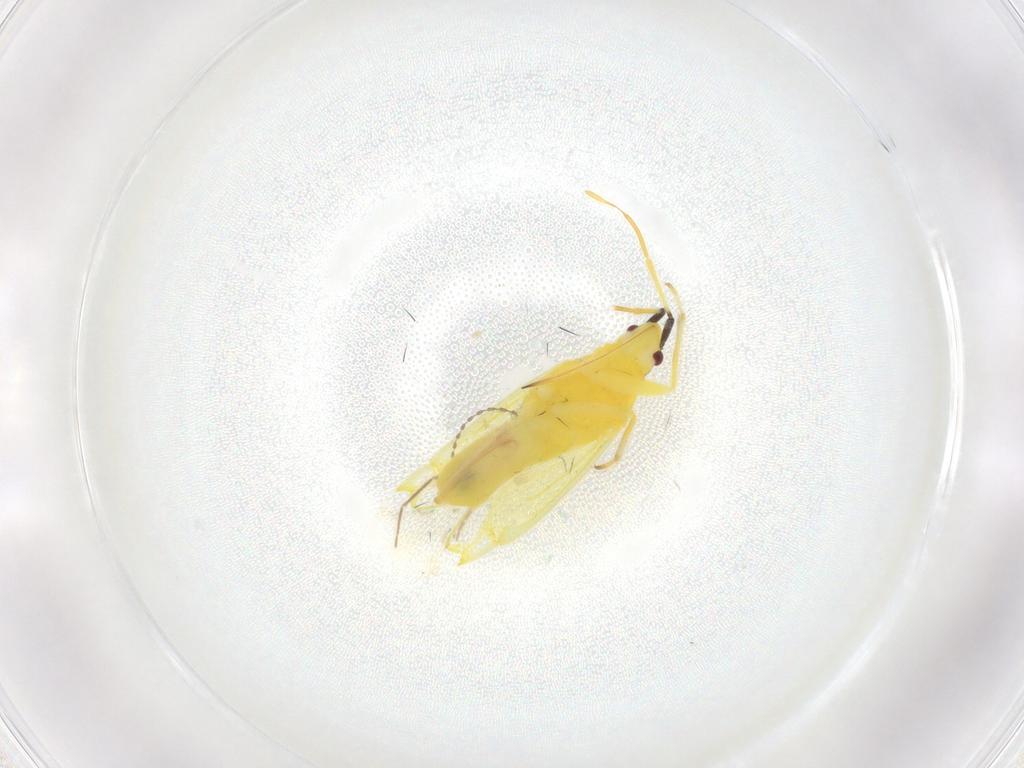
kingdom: Animalia
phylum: Arthropoda
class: Insecta
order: Hemiptera
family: Miridae
